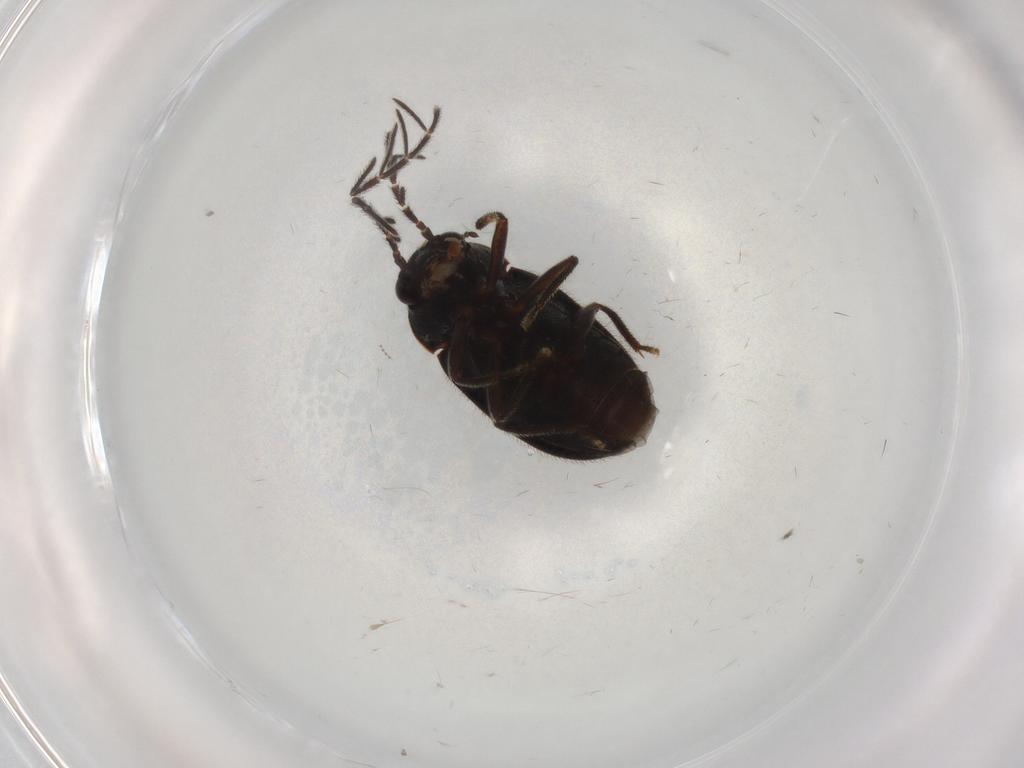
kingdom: Animalia
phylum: Arthropoda
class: Insecta
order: Coleoptera
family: Ptilodactylidae
